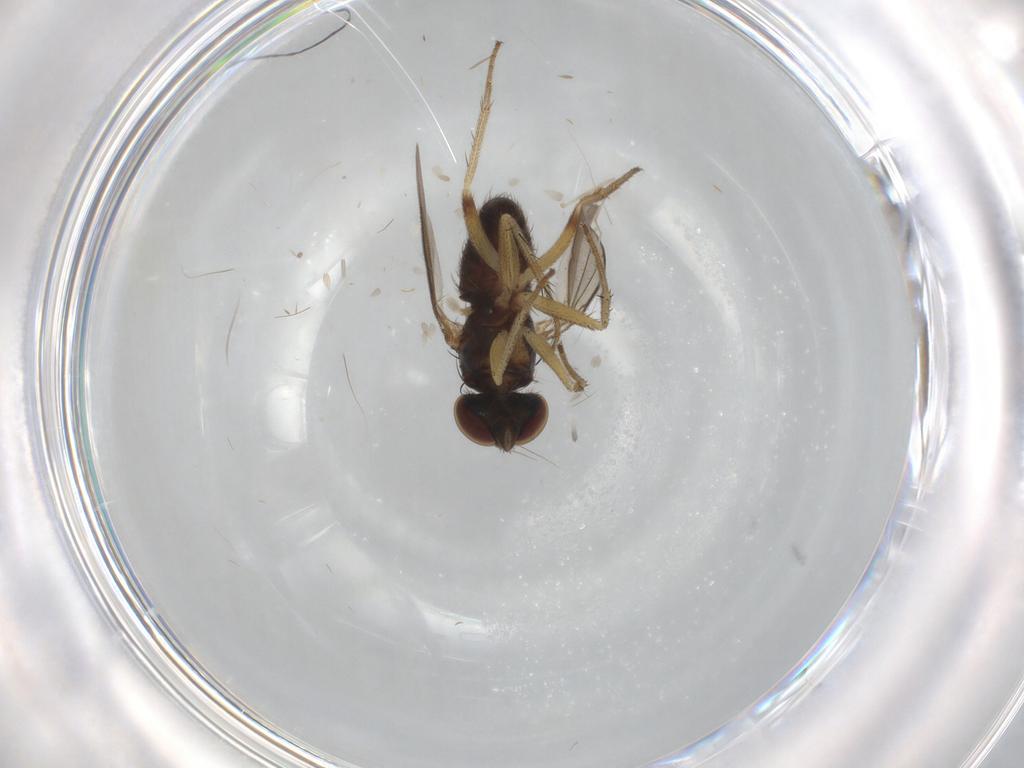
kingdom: Animalia
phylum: Arthropoda
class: Insecta
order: Diptera
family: Psychodidae
